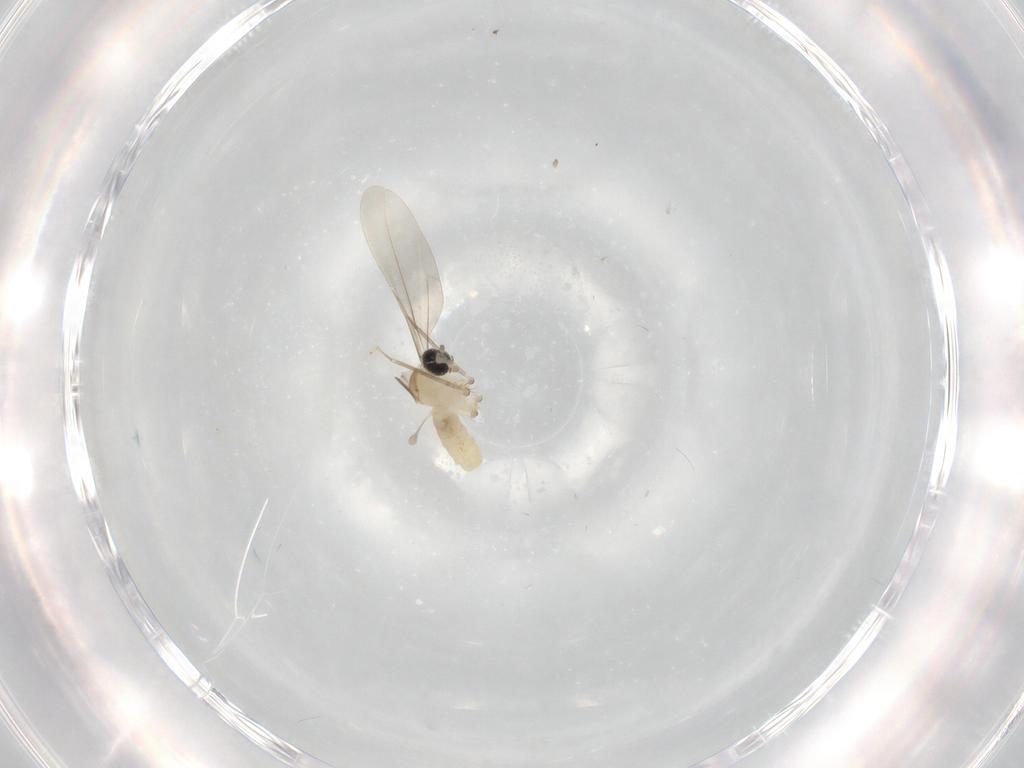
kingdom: Animalia
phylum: Arthropoda
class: Insecta
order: Diptera
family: Cecidomyiidae
